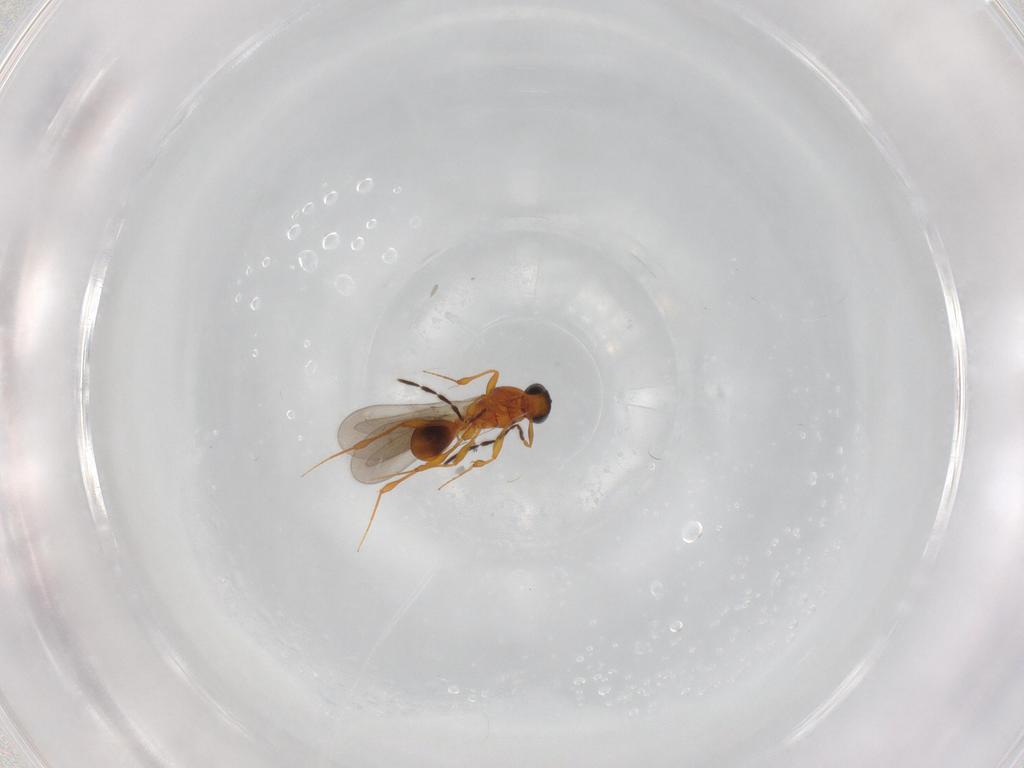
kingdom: Animalia
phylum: Arthropoda
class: Insecta
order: Hymenoptera
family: Platygastridae
